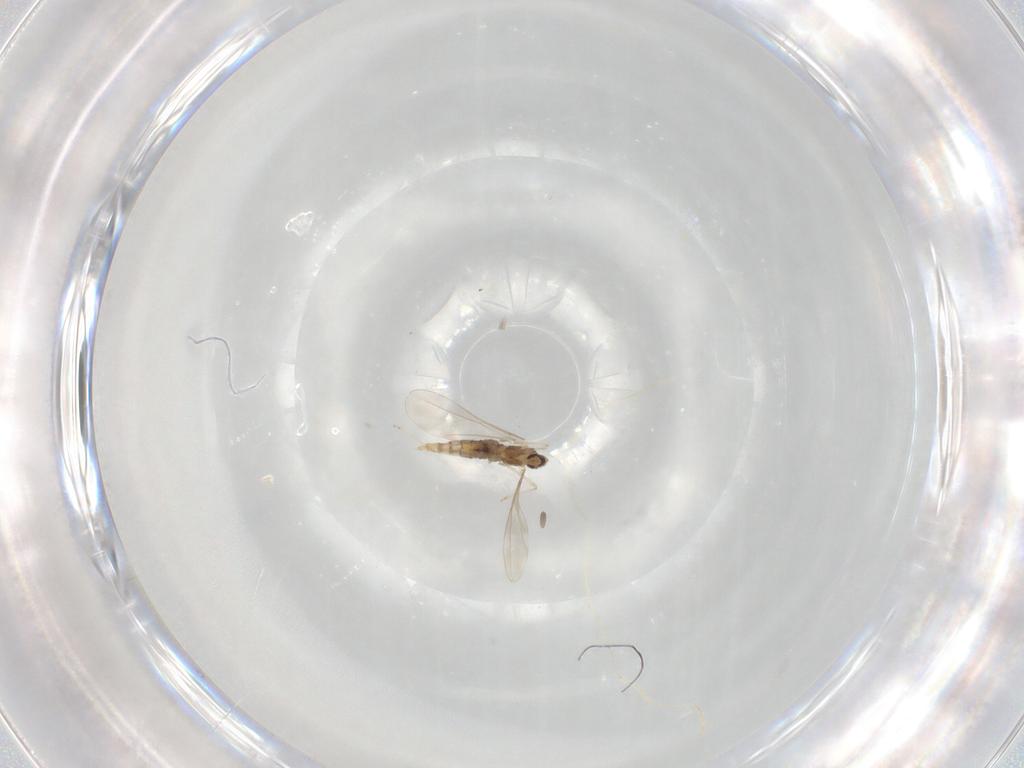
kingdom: Animalia
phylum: Arthropoda
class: Insecta
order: Diptera
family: Cecidomyiidae
